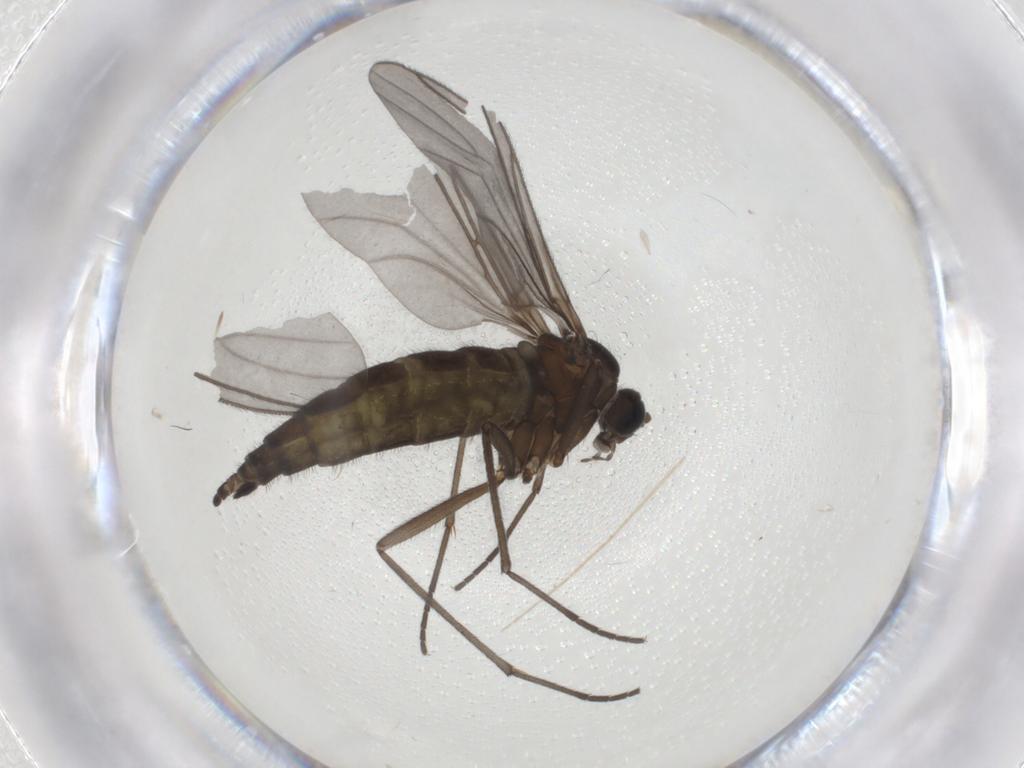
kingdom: Animalia
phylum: Arthropoda
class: Insecta
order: Diptera
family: Sciaridae
